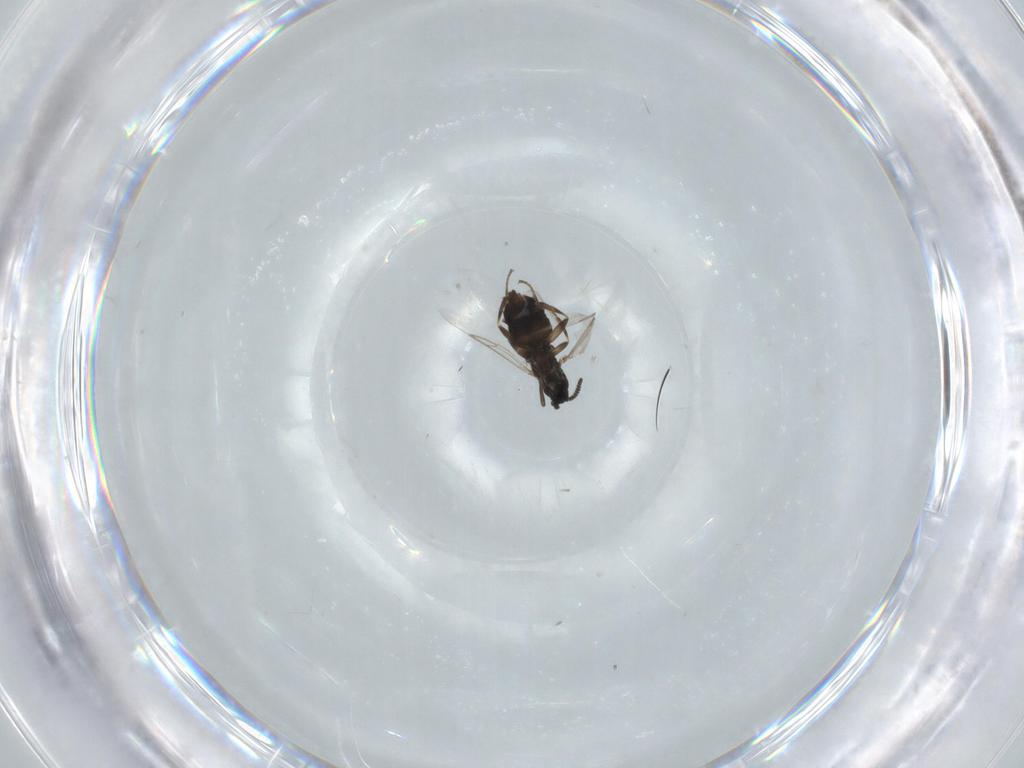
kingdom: Animalia
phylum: Arthropoda
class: Insecta
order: Diptera
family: Scatopsidae
